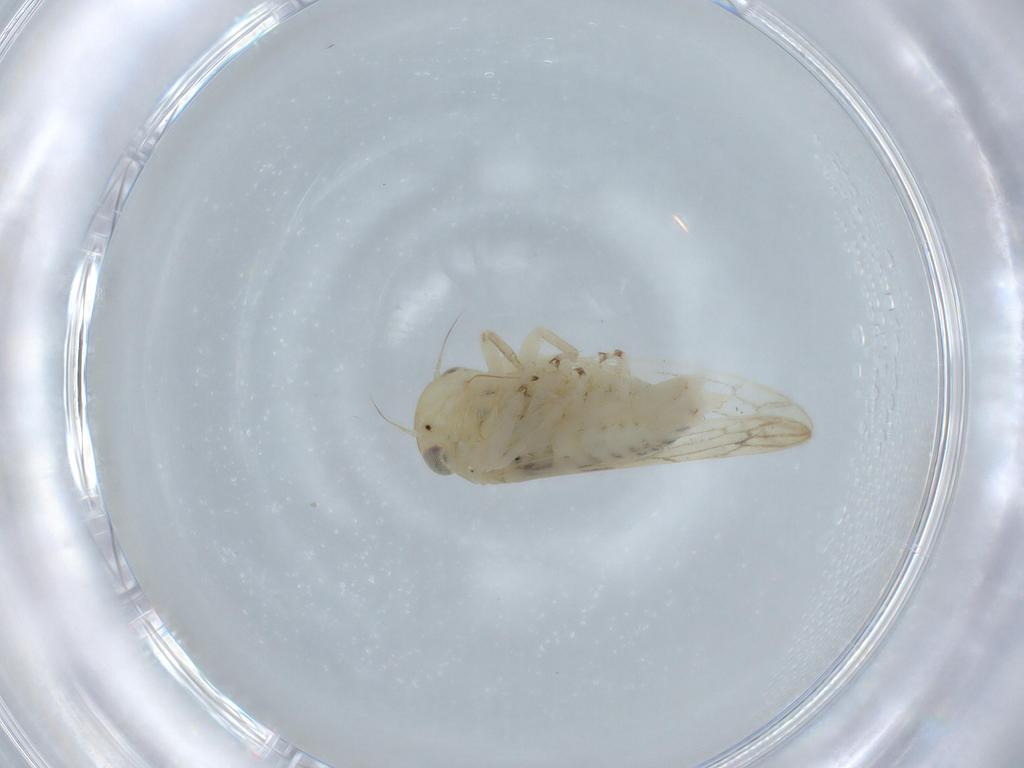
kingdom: Animalia
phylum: Arthropoda
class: Insecta
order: Hemiptera
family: Cicadellidae
